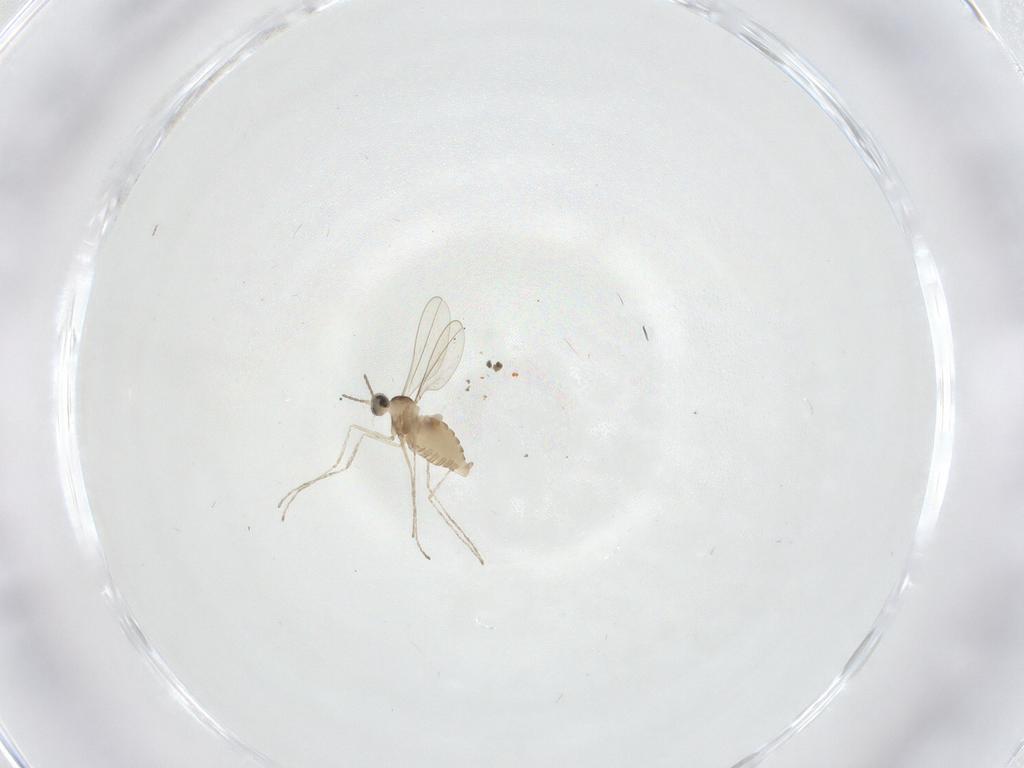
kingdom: Animalia
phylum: Arthropoda
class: Insecta
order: Diptera
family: Cecidomyiidae
